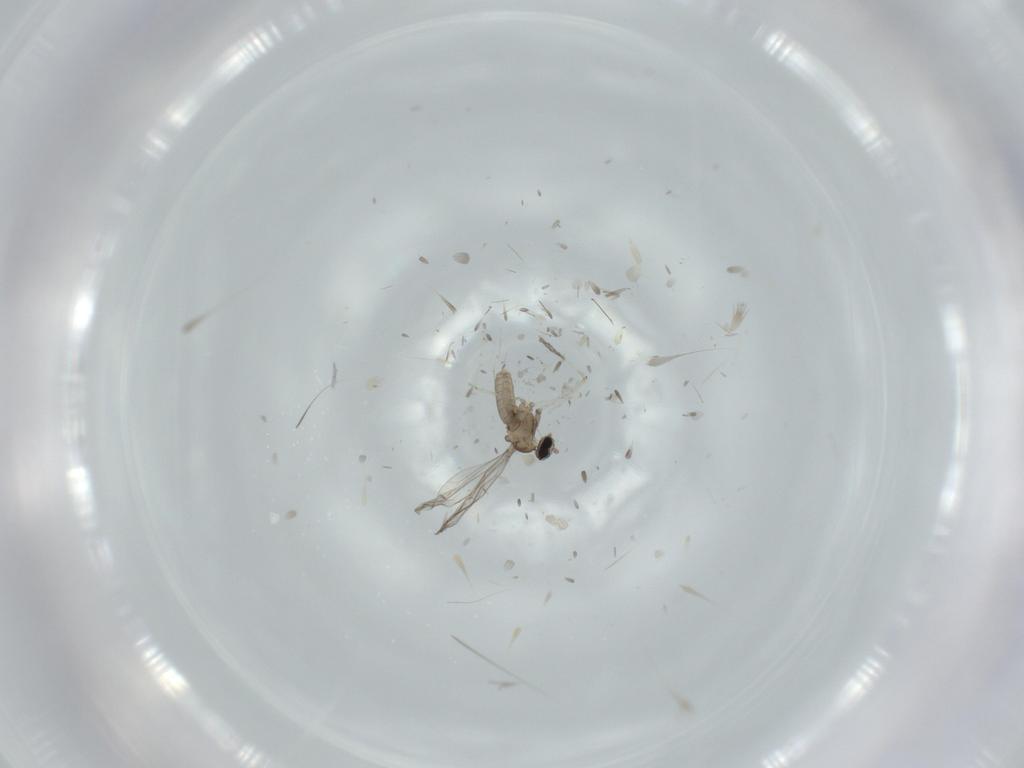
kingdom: Animalia
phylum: Arthropoda
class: Insecta
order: Diptera
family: Cecidomyiidae
